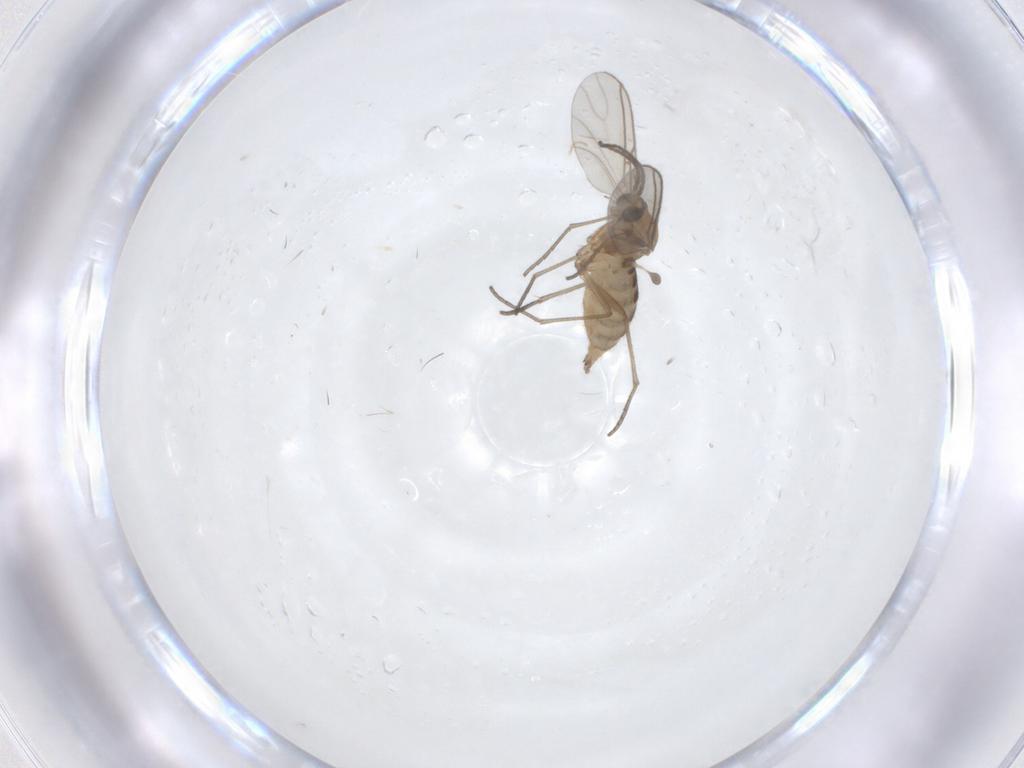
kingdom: Animalia
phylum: Arthropoda
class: Insecta
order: Diptera
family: Sciaridae
